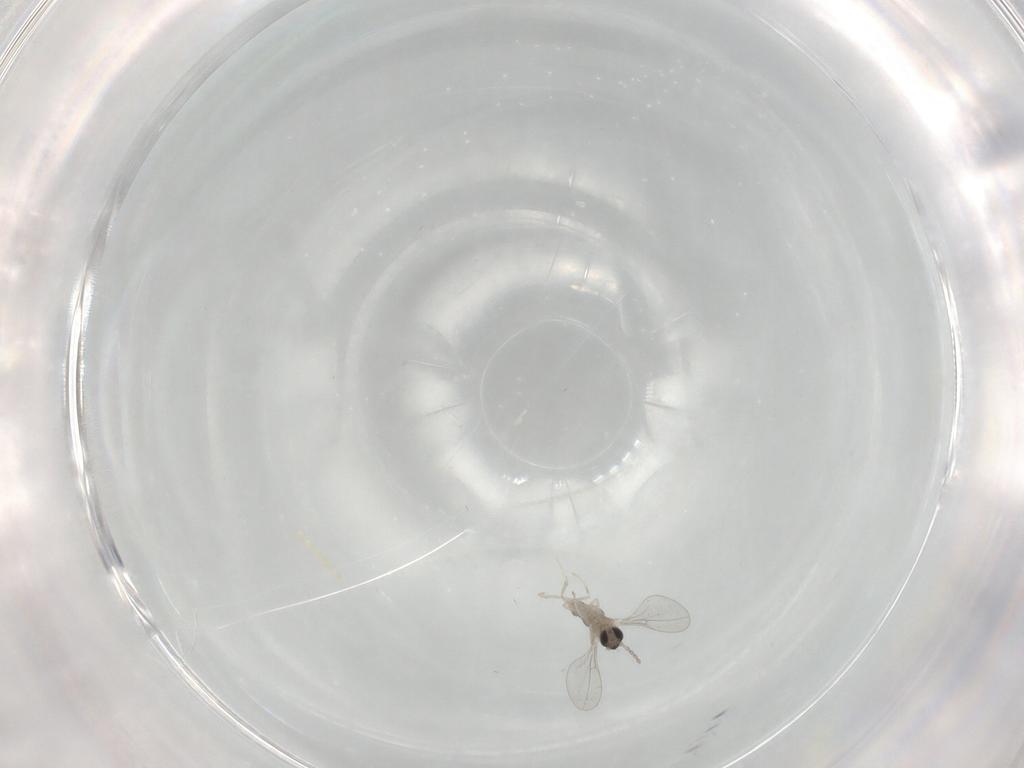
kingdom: Animalia
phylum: Arthropoda
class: Insecta
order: Diptera
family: Cecidomyiidae
